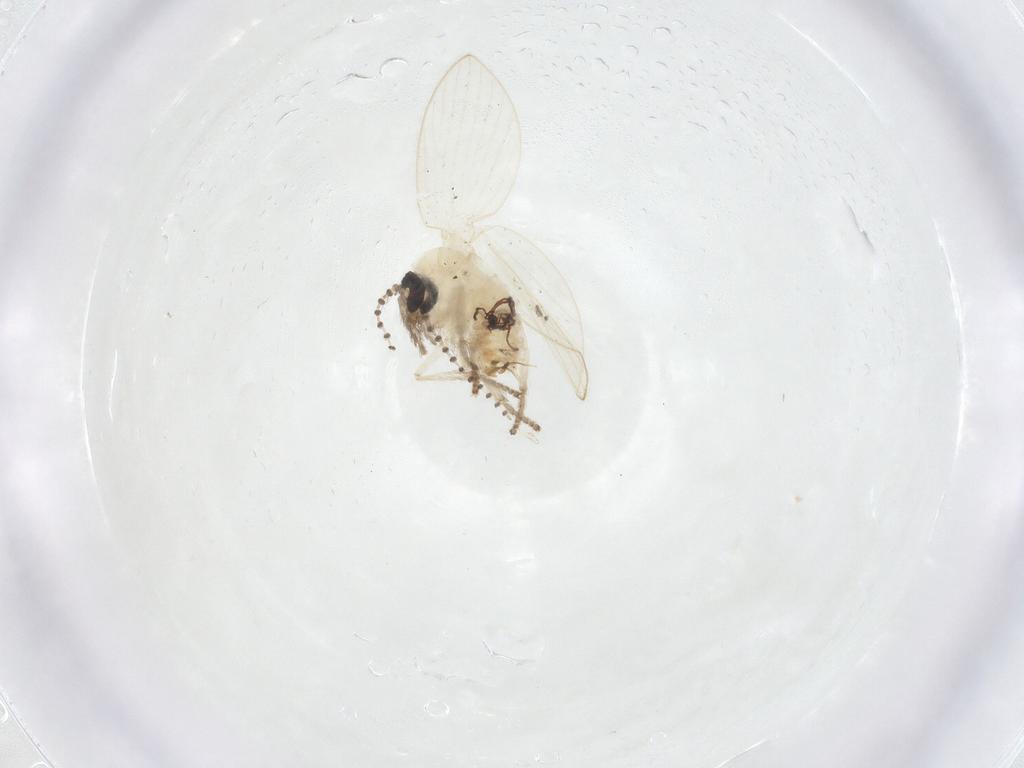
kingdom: Animalia
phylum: Arthropoda
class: Insecta
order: Diptera
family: Psychodidae
